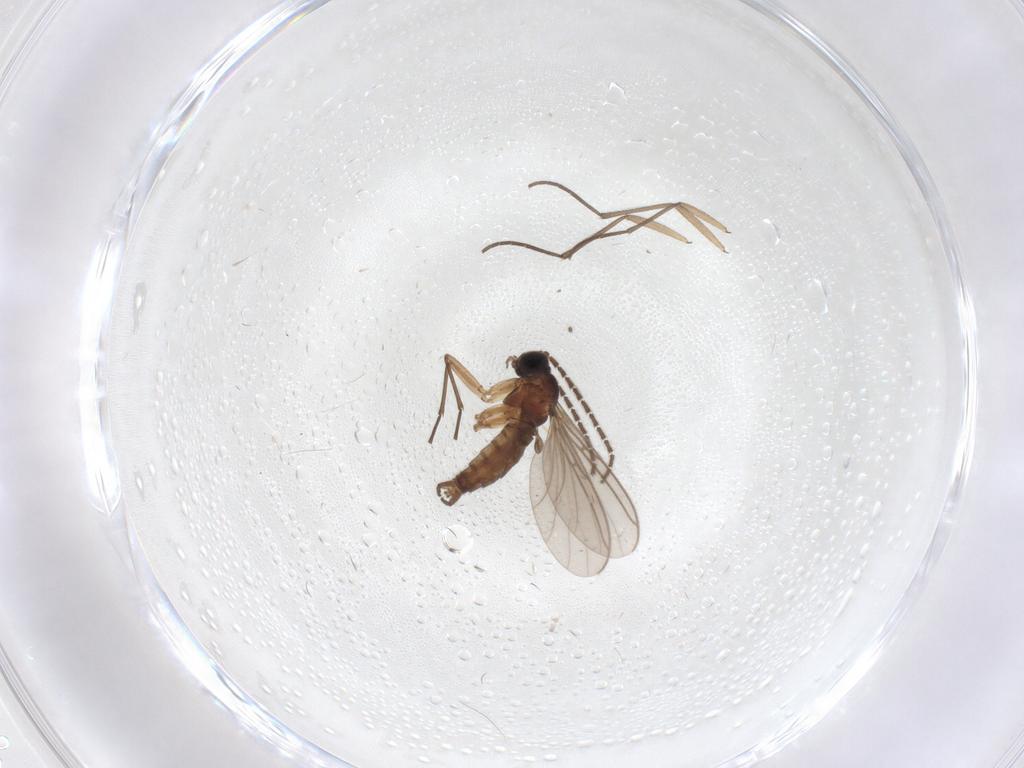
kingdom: Animalia
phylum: Arthropoda
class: Insecta
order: Diptera
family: Sciaridae
